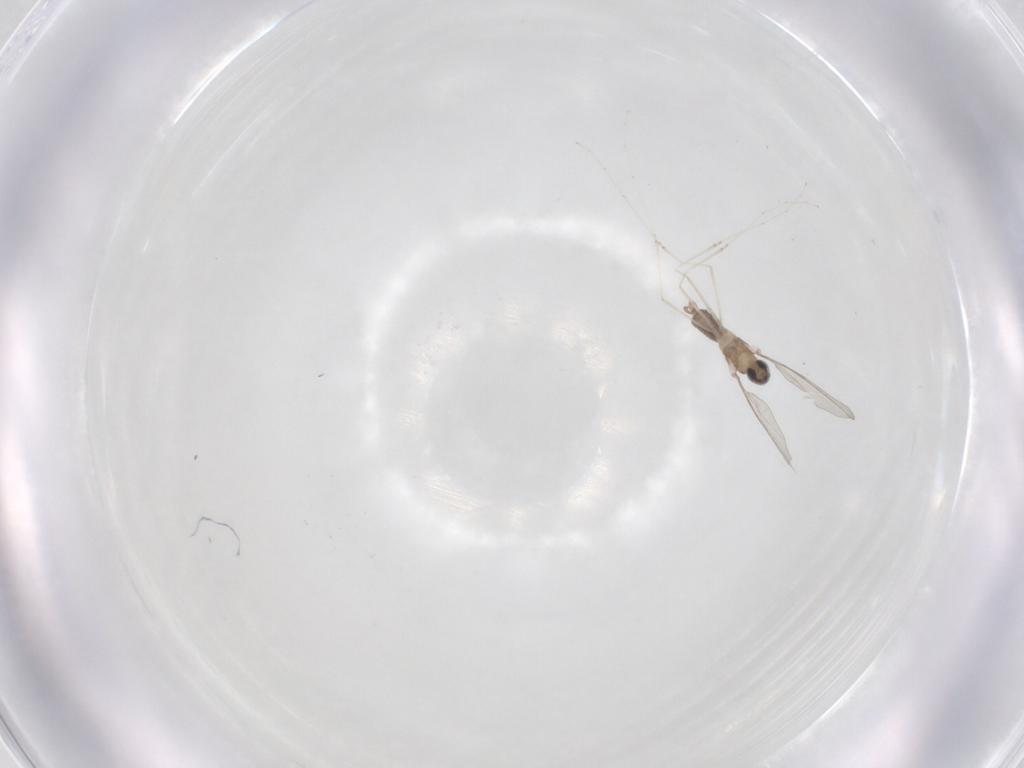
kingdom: Animalia
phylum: Arthropoda
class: Insecta
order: Diptera
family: Cecidomyiidae
